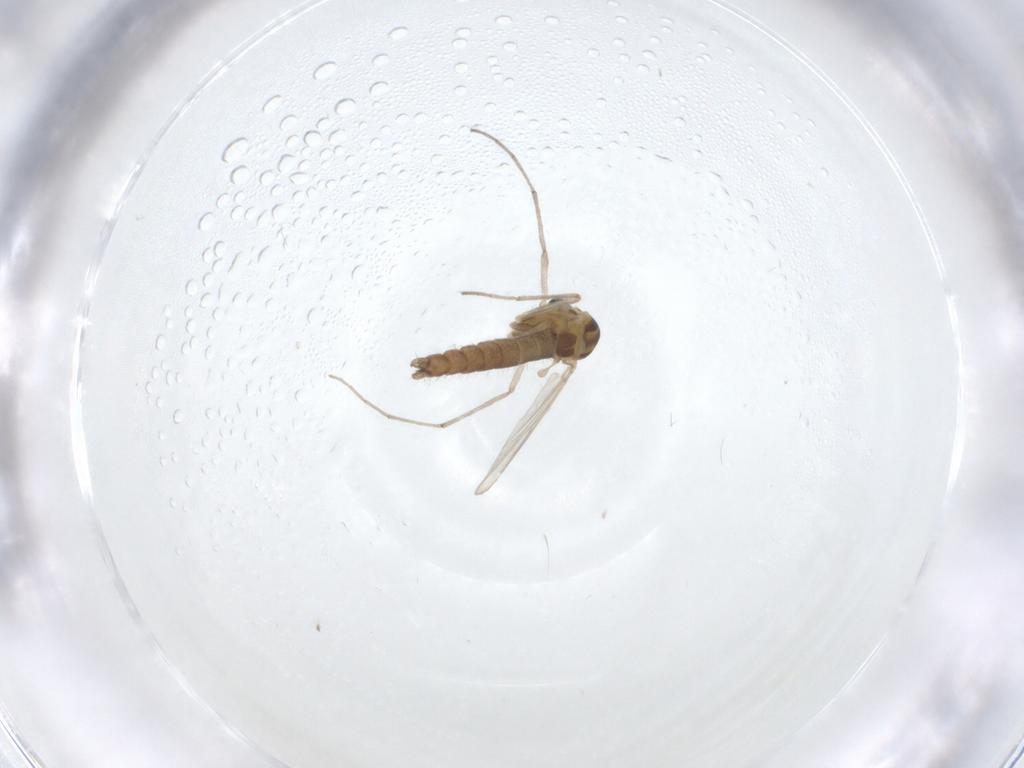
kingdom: Animalia
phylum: Arthropoda
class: Insecta
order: Diptera
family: Chironomidae
